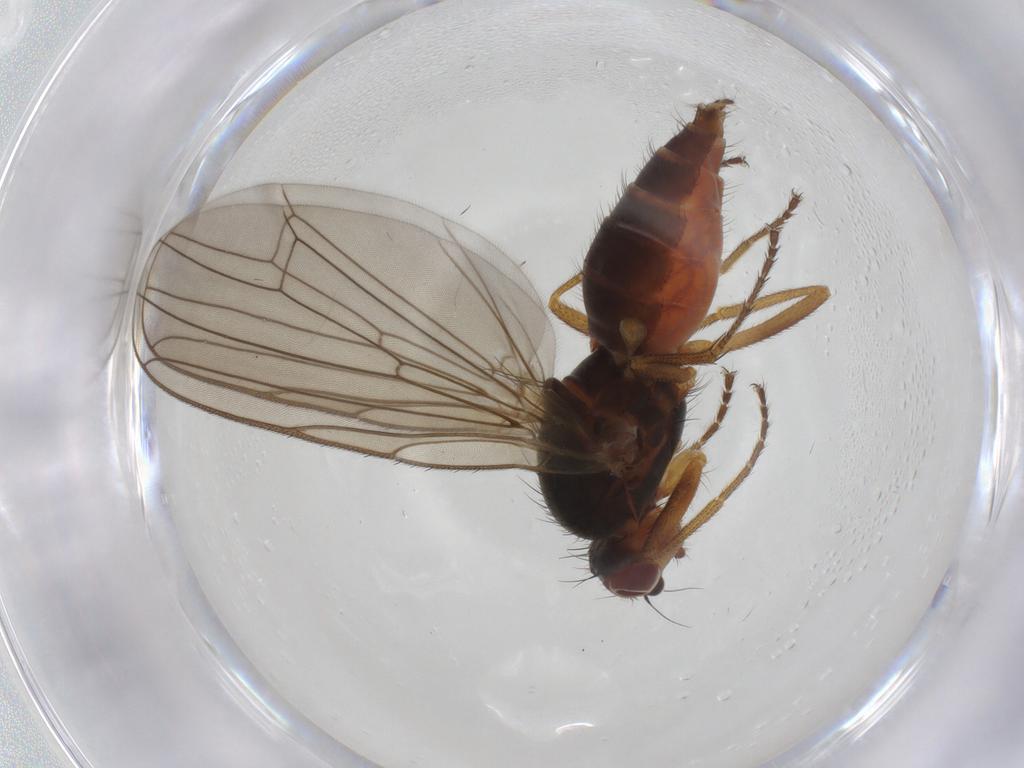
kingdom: Animalia
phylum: Arthropoda
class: Insecta
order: Diptera
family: Heleomyzidae
